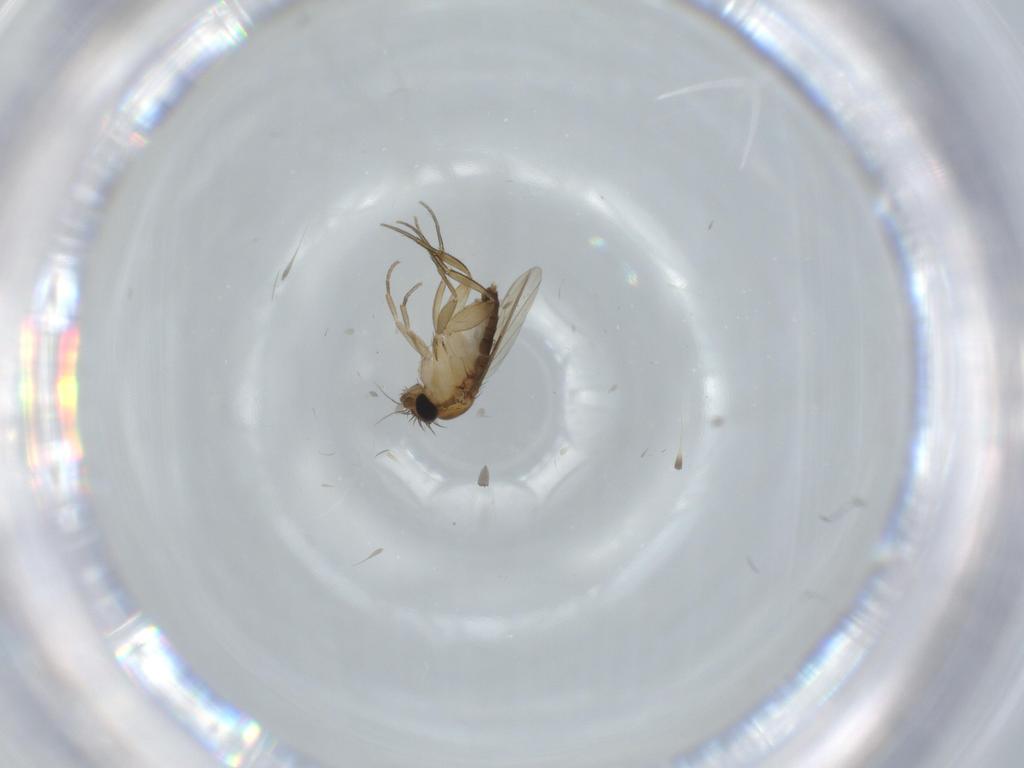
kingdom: Animalia
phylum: Arthropoda
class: Insecta
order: Diptera
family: Phoridae
